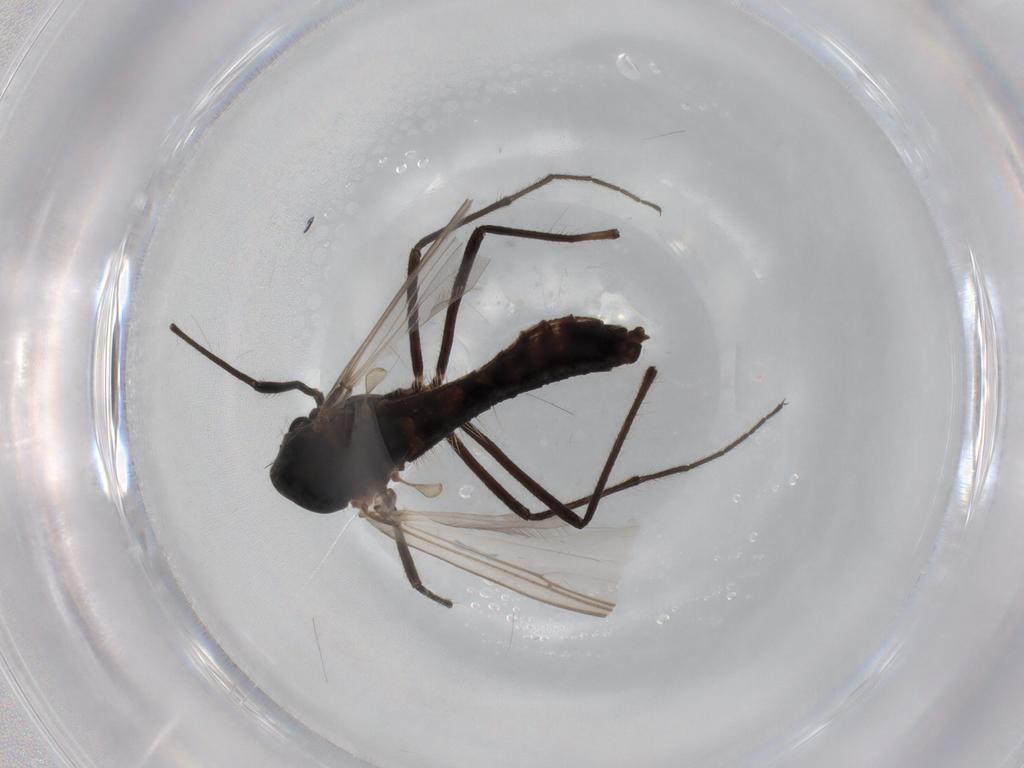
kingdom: Animalia
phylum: Arthropoda
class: Insecta
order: Diptera
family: Chironomidae
